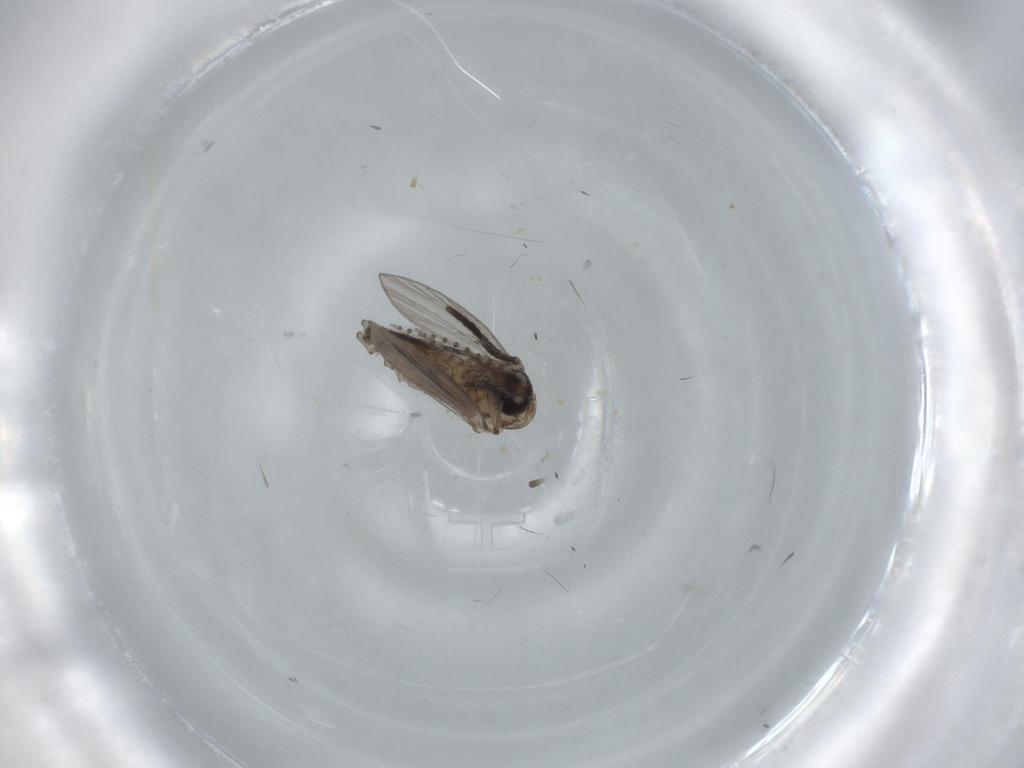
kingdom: Animalia
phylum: Arthropoda
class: Insecta
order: Diptera
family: Psychodidae
